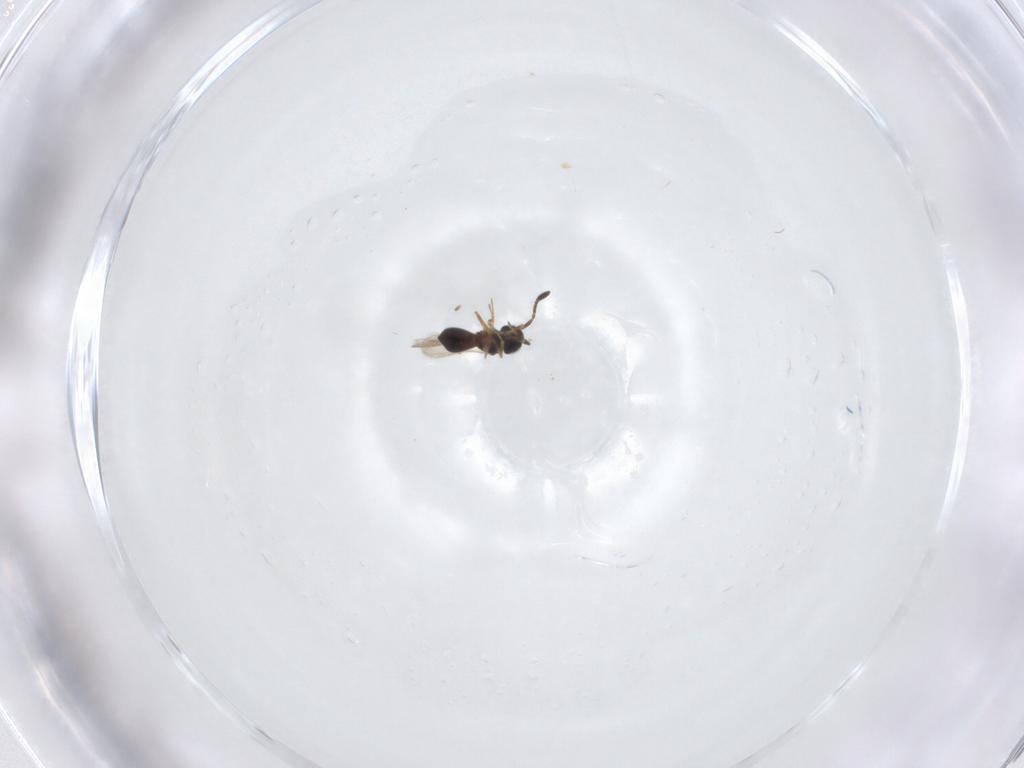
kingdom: Animalia
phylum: Arthropoda
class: Insecta
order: Hymenoptera
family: Scelionidae
